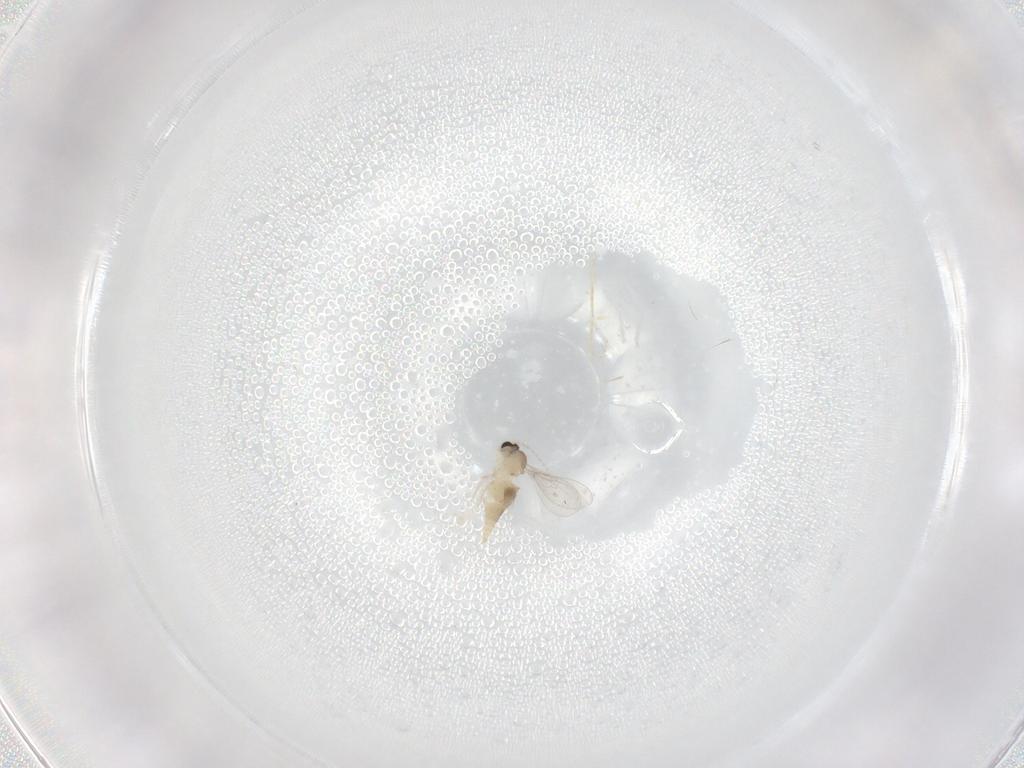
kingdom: Animalia
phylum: Arthropoda
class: Insecta
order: Diptera
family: Cecidomyiidae
